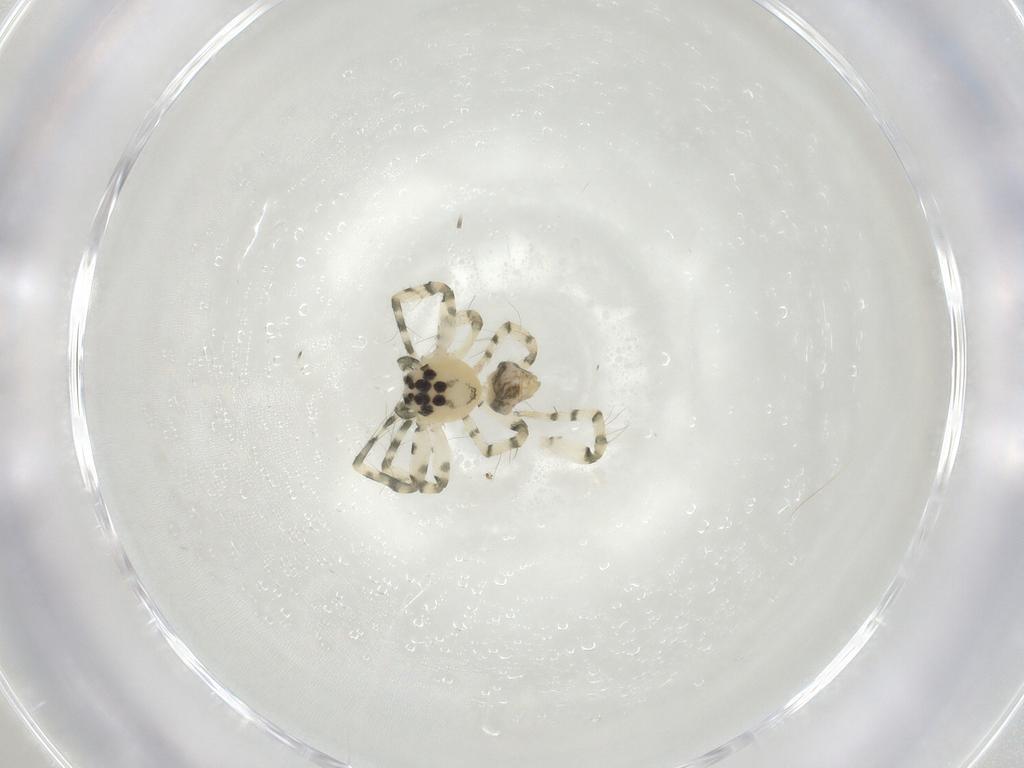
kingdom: Animalia
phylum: Arthropoda
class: Arachnida
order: Araneae
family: Oxyopidae
